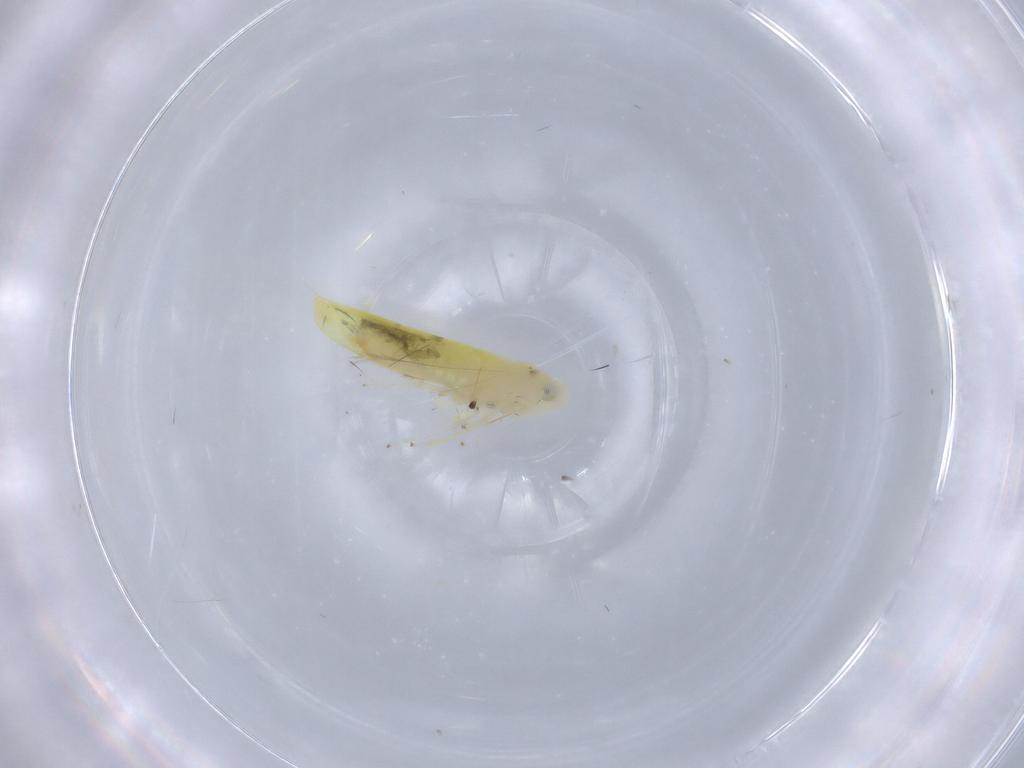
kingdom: Animalia
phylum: Arthropoda
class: Insecta
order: Hemiptera
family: Cicadellidae
